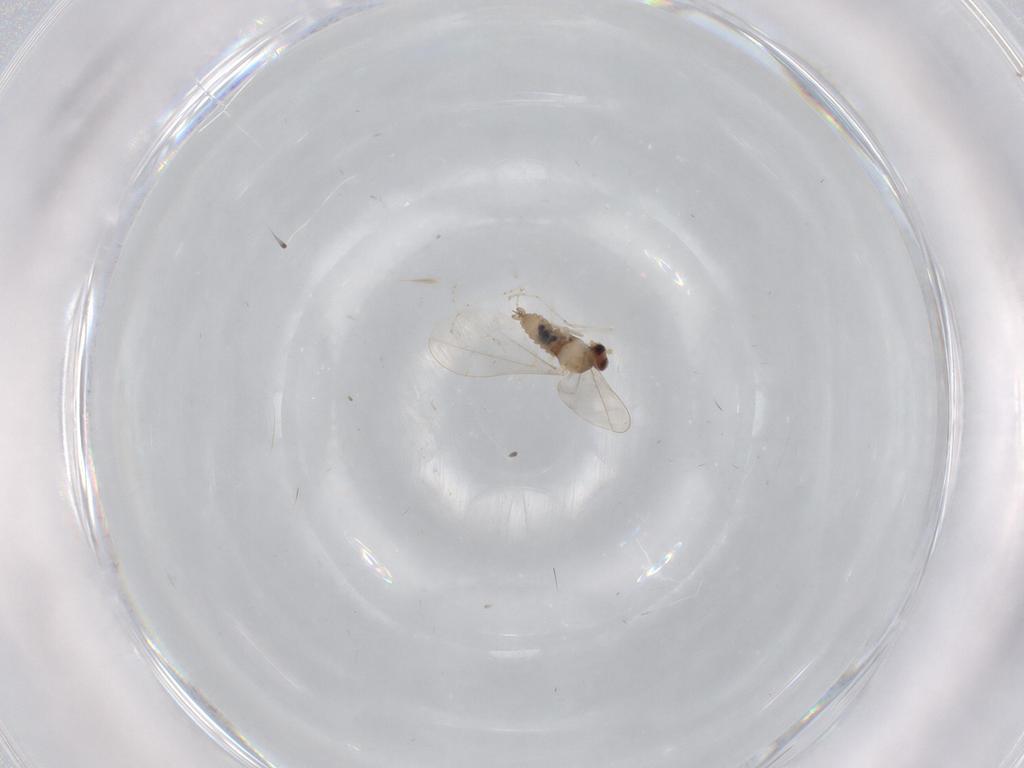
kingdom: Animalia
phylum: Arthropoda
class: Insecta
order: Diptera
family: Cecidomyiidae
